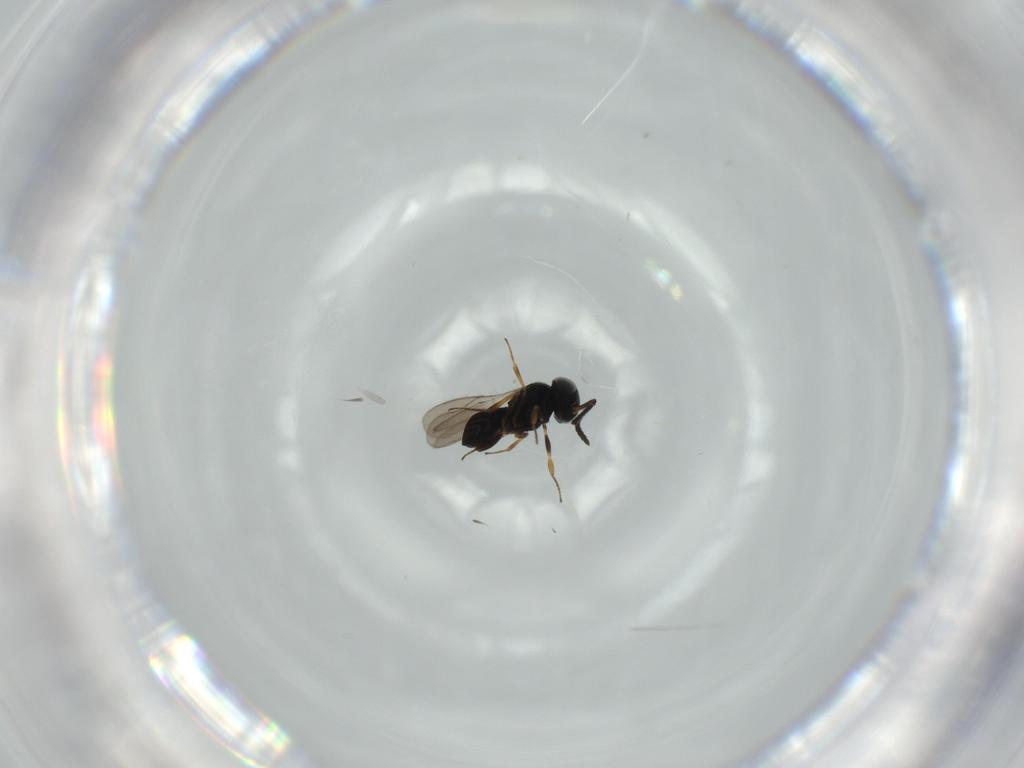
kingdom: Animalia
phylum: Arthropoda
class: Insecta
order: Hymenoptera
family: Scelionidae
